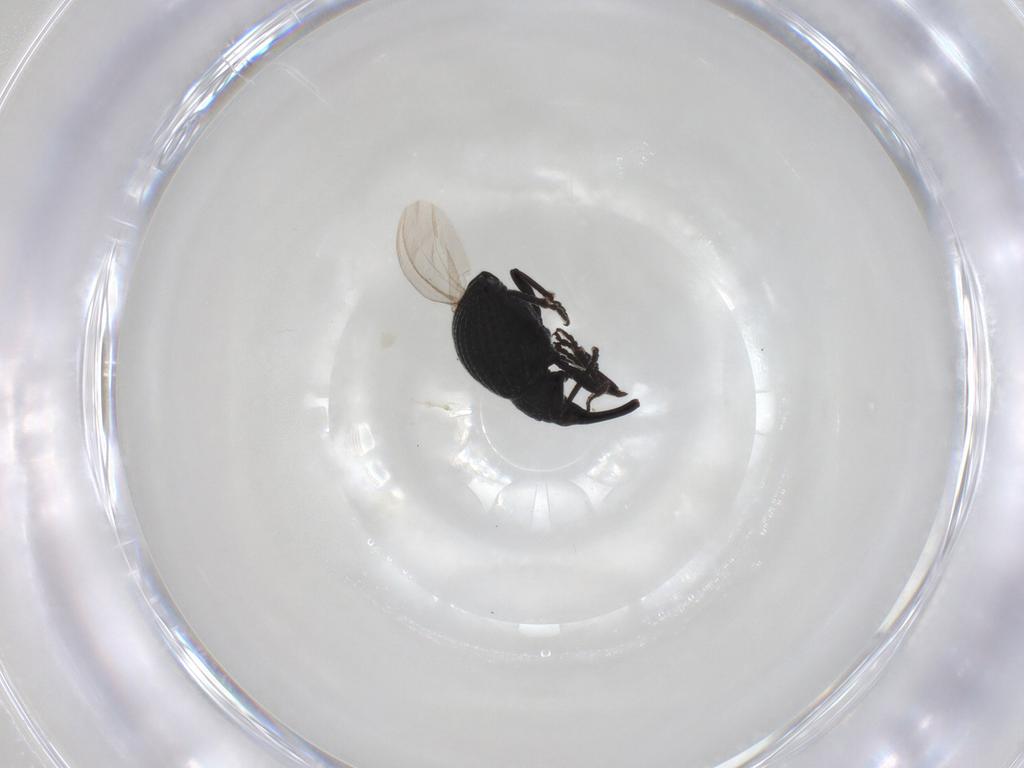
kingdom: Animalia
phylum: Arthropoda
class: Insecta
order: Coleoptera
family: Brentidae
